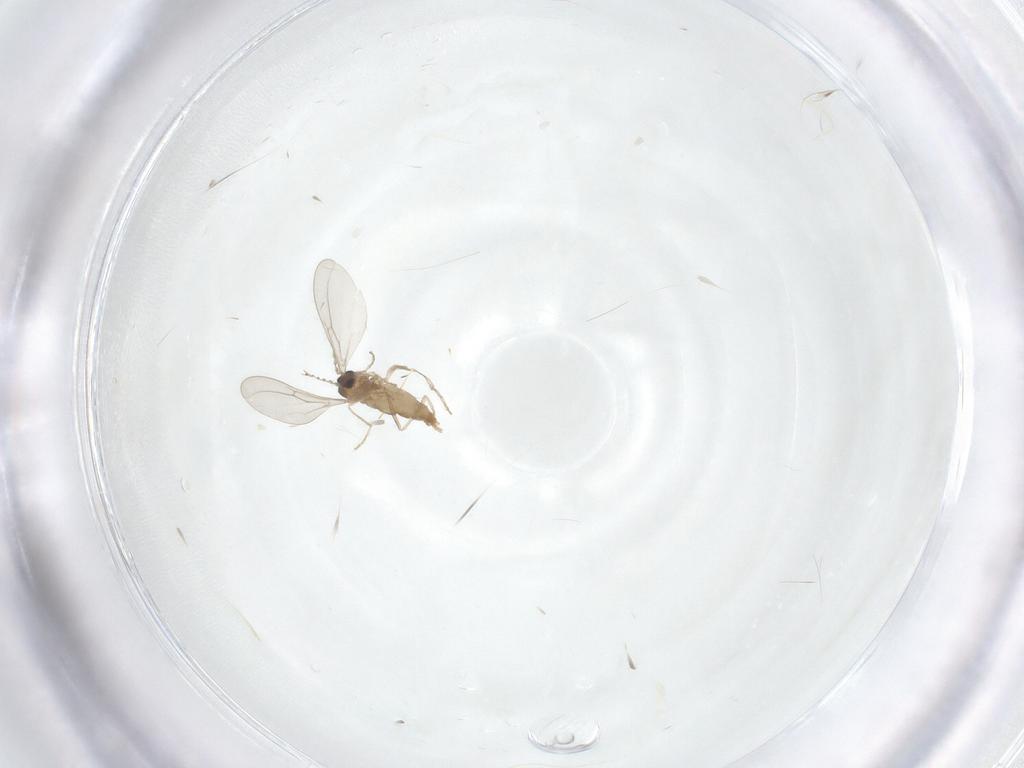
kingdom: Animalia
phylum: Arthropoda
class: Insecta
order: Diptera
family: Cecidomyiidae
